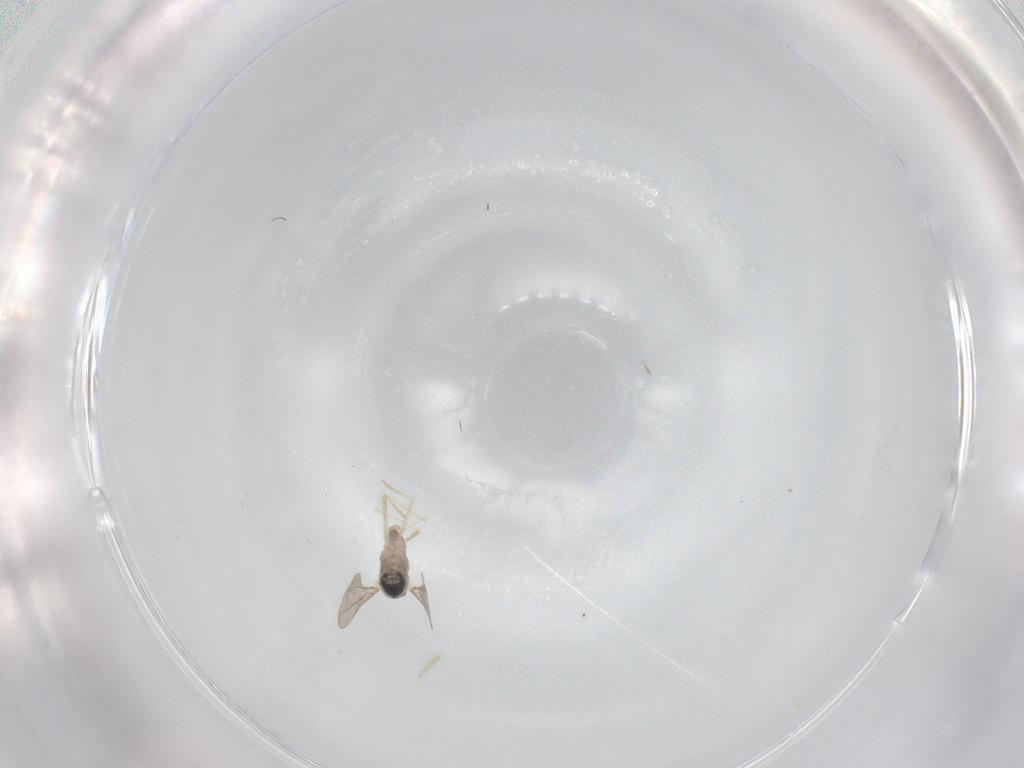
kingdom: Animalia
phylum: Arthropoda
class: Insecta
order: Diptera
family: Cecidomyiidae
